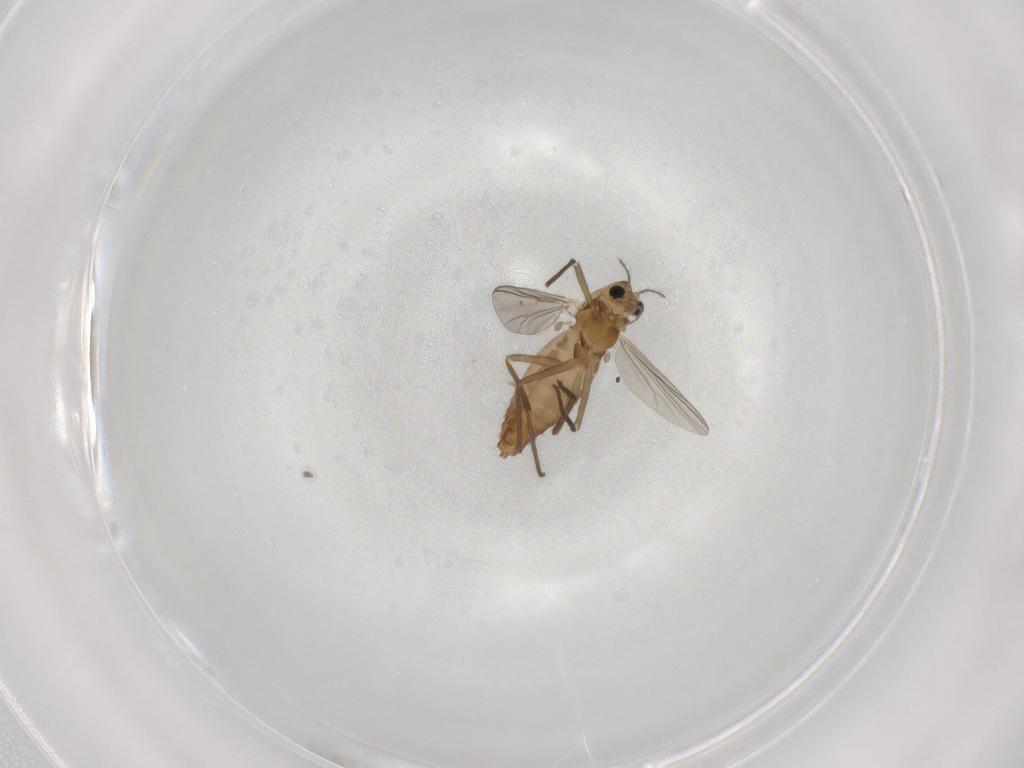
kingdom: Animalia
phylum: Arthropoda
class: Insecta
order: Diptera
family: Chironomidae
